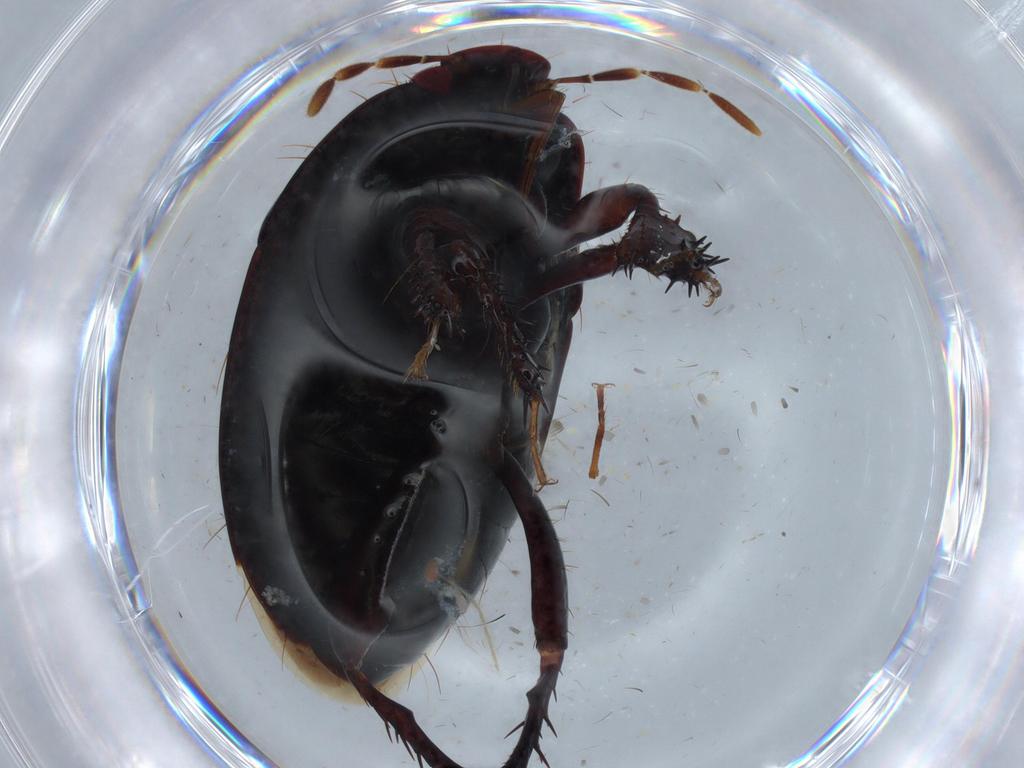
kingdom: Animalia
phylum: Arthropoda
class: Insecta
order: Hemiptera
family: Cydnidae
